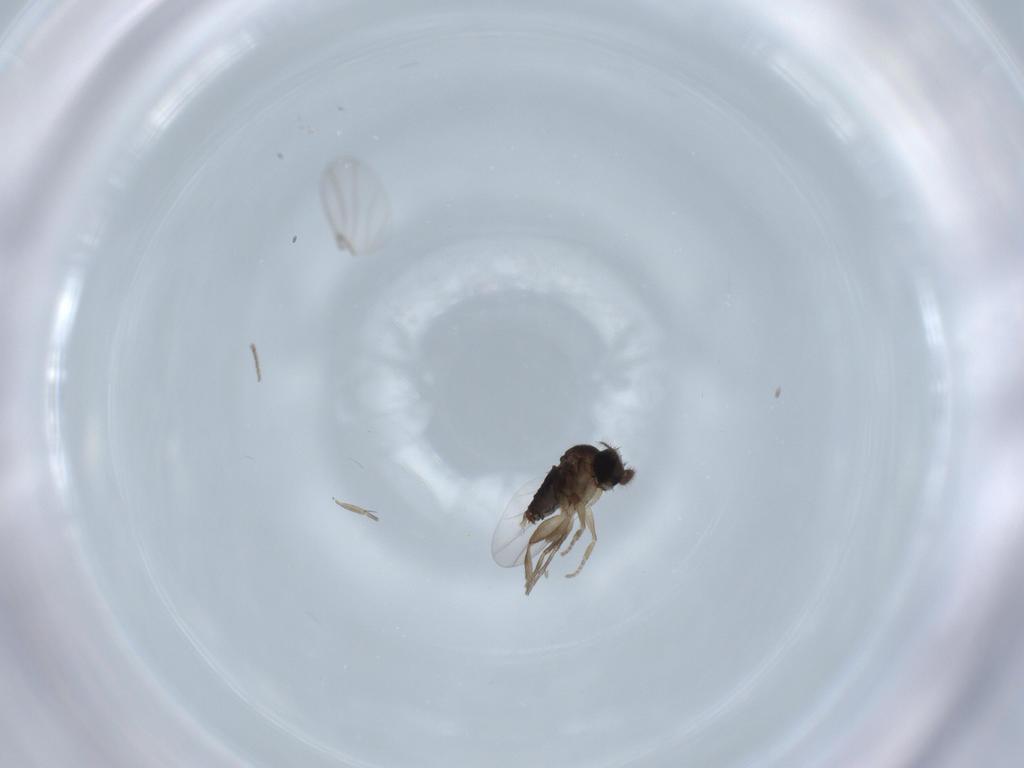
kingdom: Animalia
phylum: Arthropoda
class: Insecta
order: Diptera
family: Phoridae
